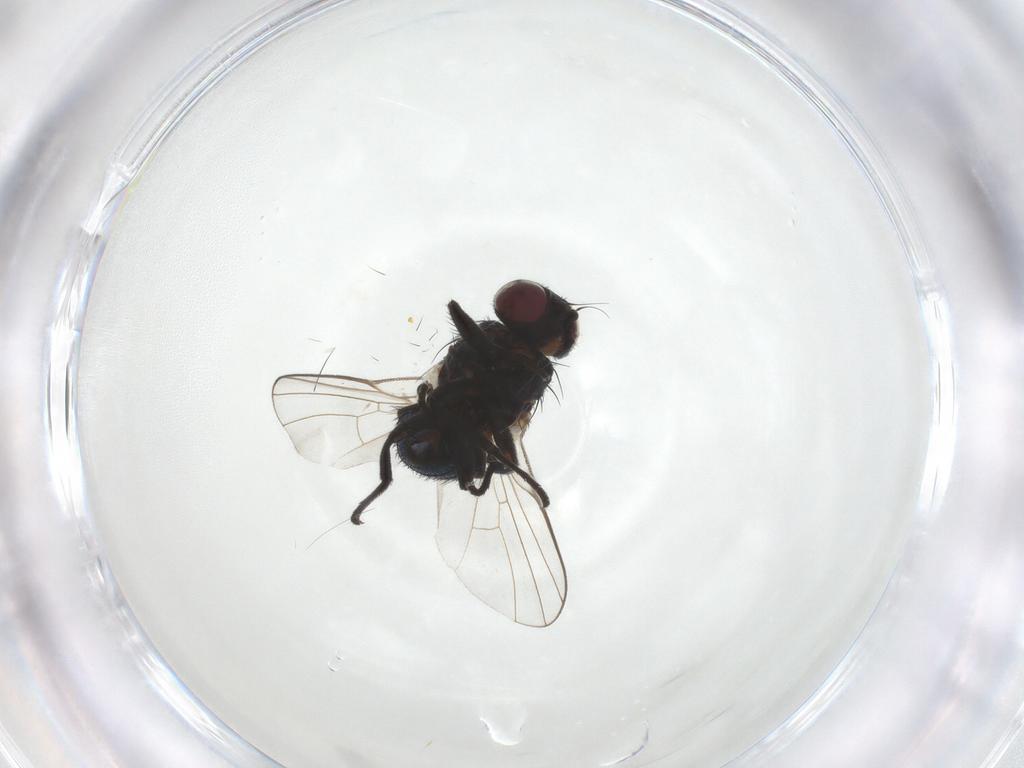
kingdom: Animalia
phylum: Arthropoda
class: Insecta
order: Diptera
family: Agromyzidae
